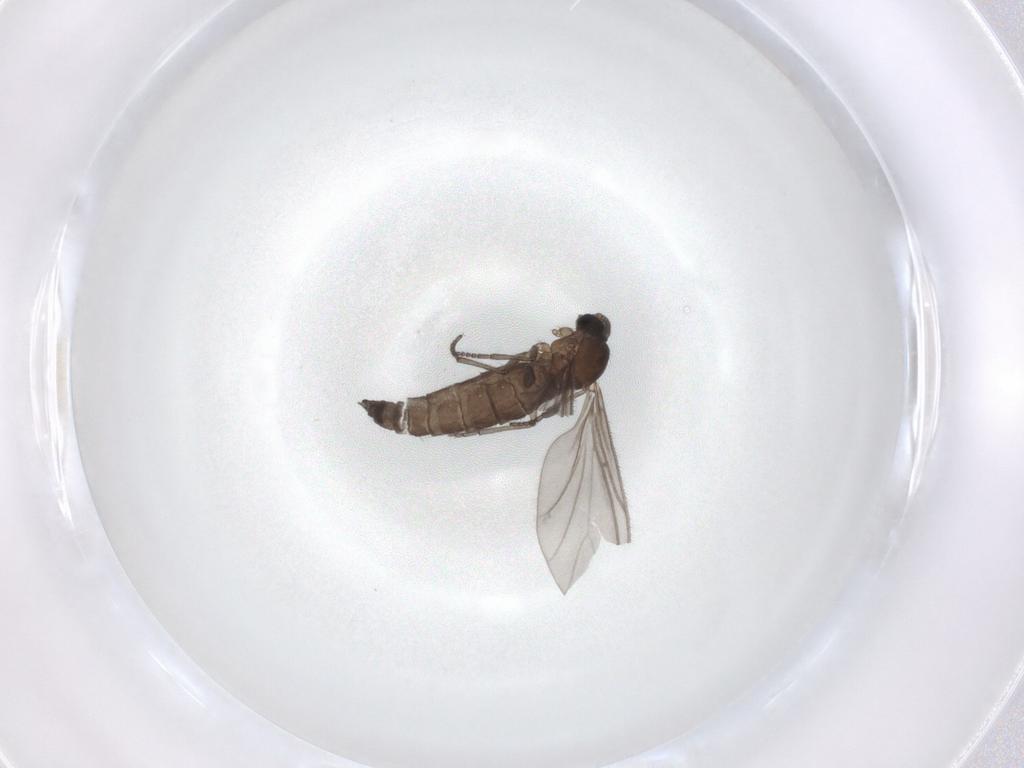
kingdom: Animalia
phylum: Arthropoda
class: Insecta
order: Diptera
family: Sciaridae
